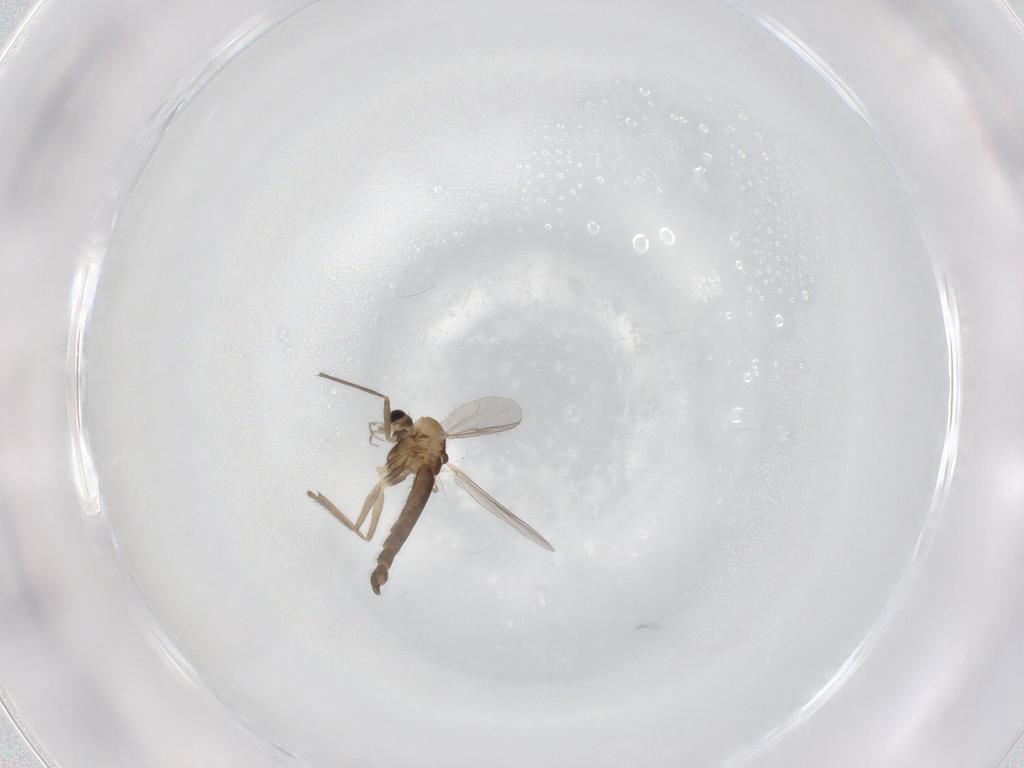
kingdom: Animalia
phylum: Arthropoda
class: Insecta
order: Diptera
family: Chironomidae
